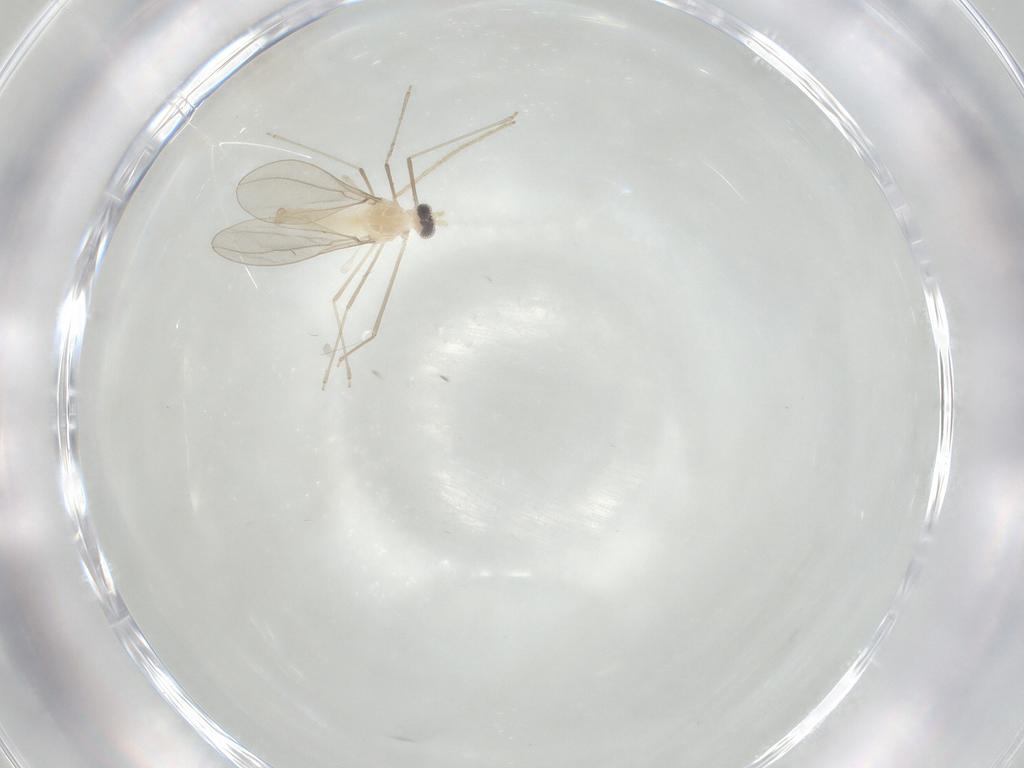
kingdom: Animalia
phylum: Arthropoda
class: Insecta
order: Diptera
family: Cecidomyiidae
